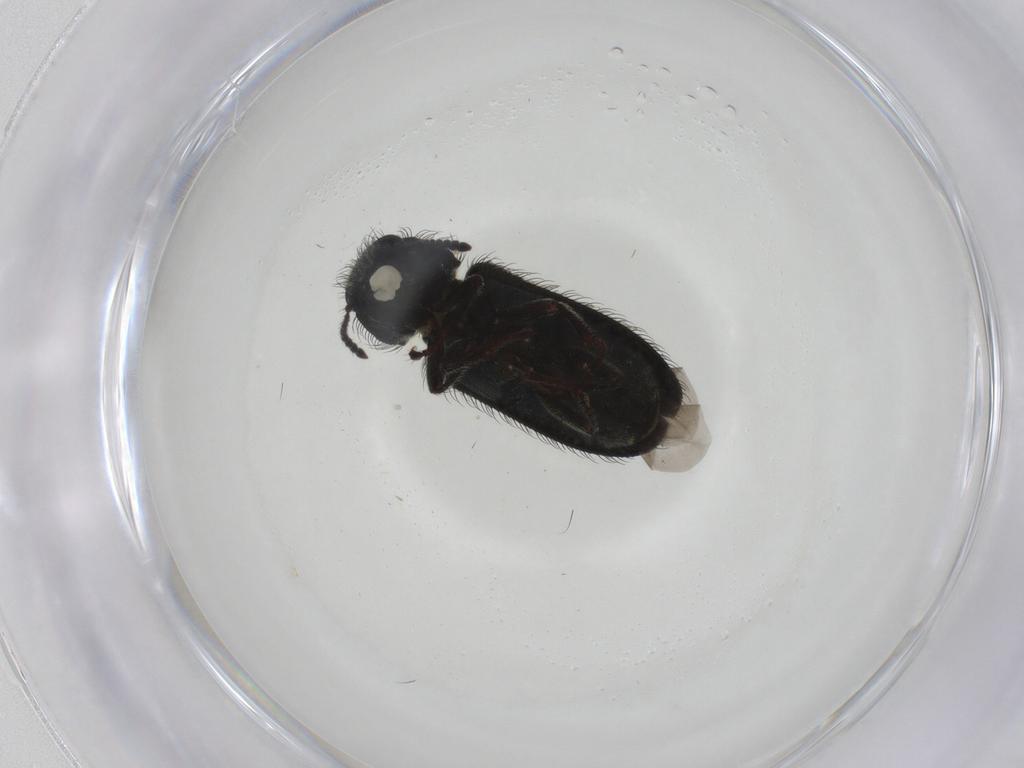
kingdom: Animalia
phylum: Arthropoda
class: Insecta
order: Coleoptera
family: Melyridae
